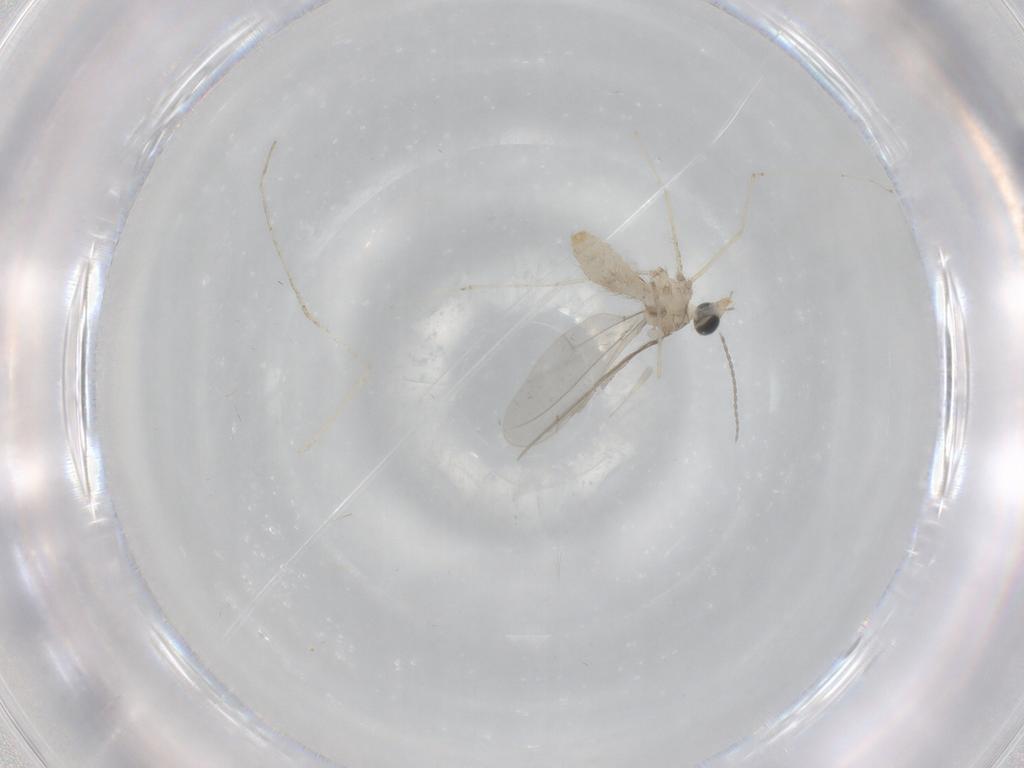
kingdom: Animalia
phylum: Arthropoda
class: Insecta
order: Diptera
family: Cecidomyiidae
